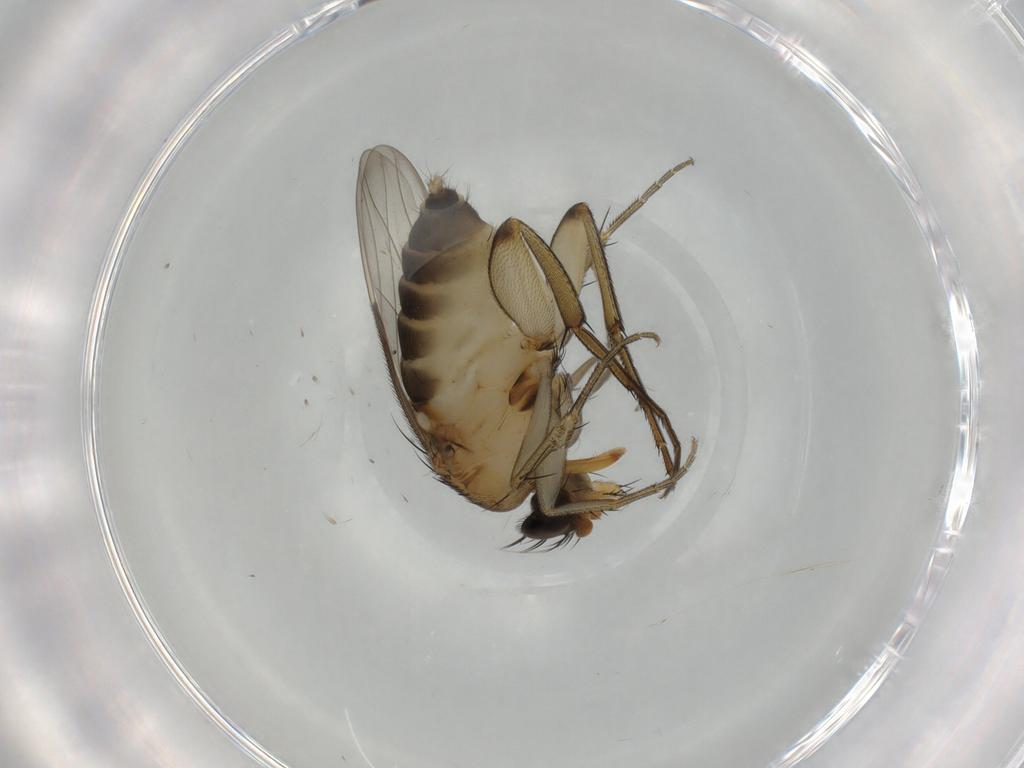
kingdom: Animalia
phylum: Arthropoda
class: Insecta
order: Diptera
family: Phoridae
